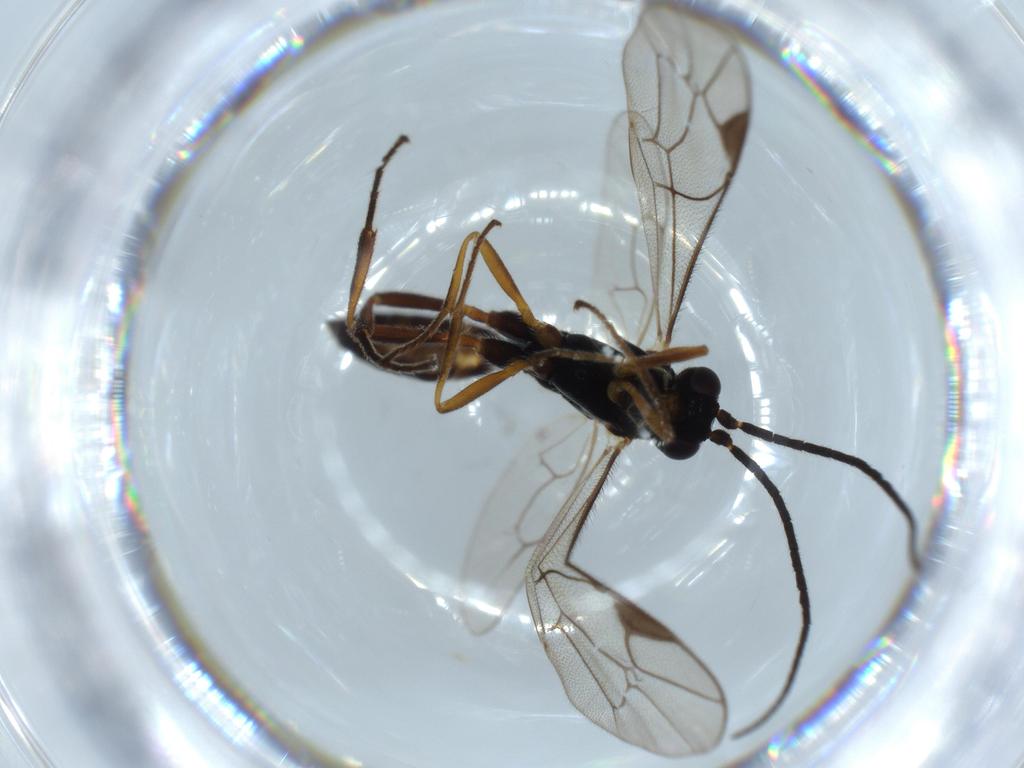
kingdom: Animalia
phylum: Arthropoda
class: Insecta
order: Hymenoptera
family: Ichneumonidae
